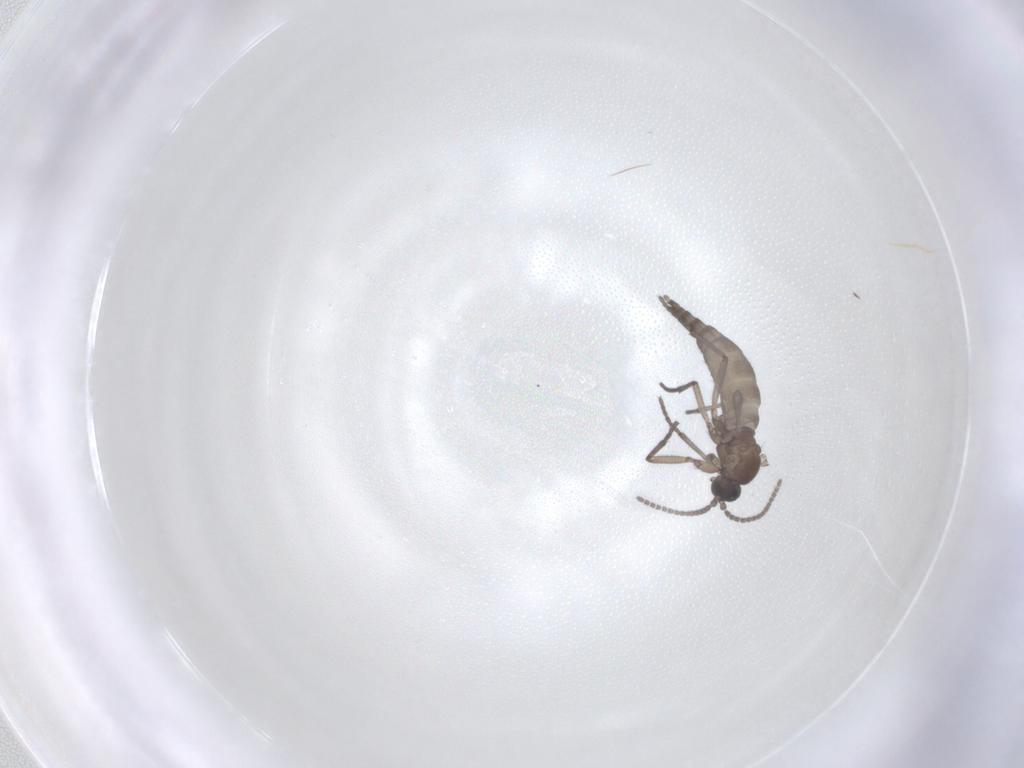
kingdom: Animalia
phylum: Arthropoda
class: Insecta
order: Diptera
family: Sciaridae
